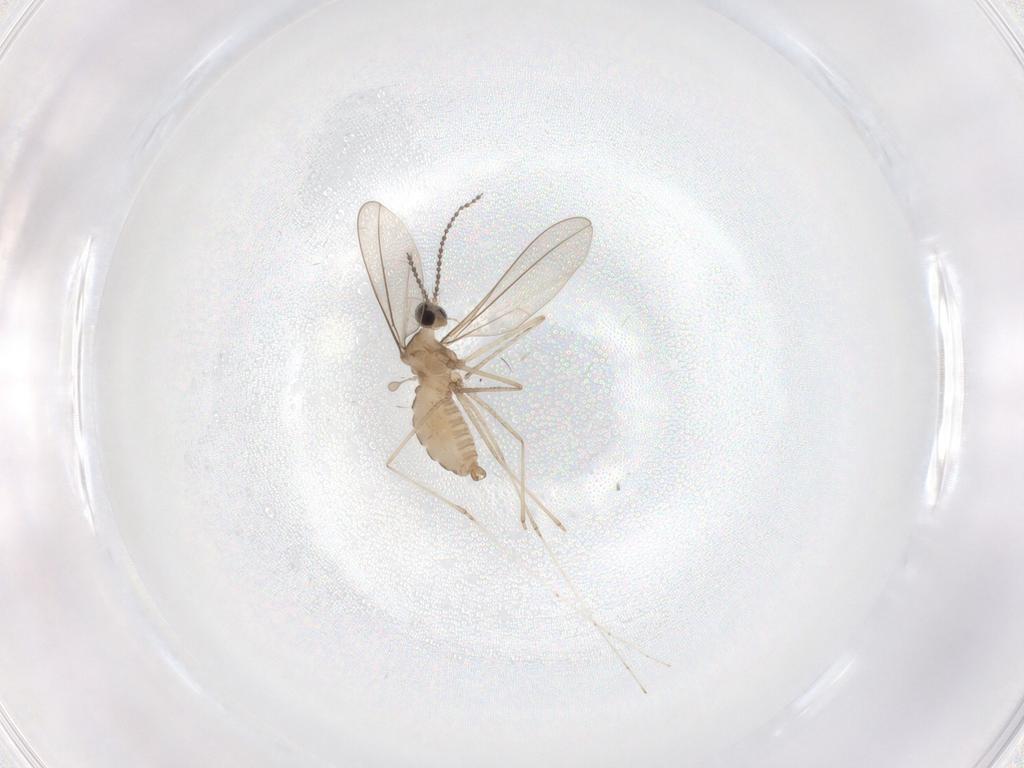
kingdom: Animalia
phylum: Arthropoda
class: Insecta
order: Diptera
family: Cecidomyiidae
